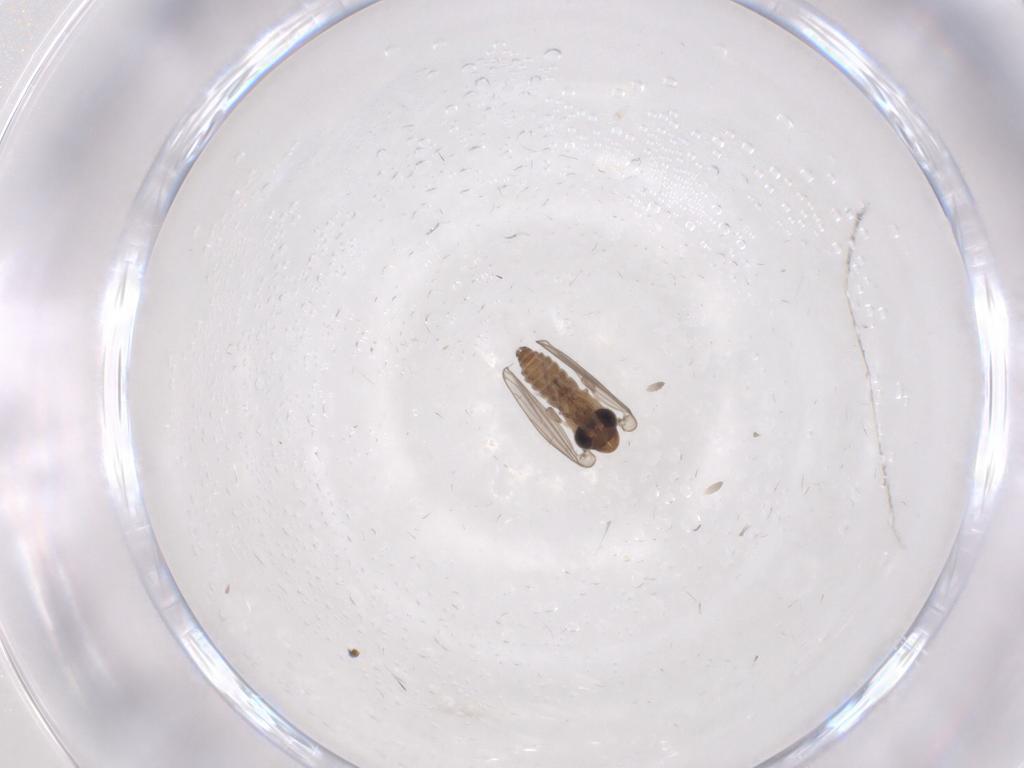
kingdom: Animalia
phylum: Arthropoda
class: Insecta
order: Diptera
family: Psychodidae
